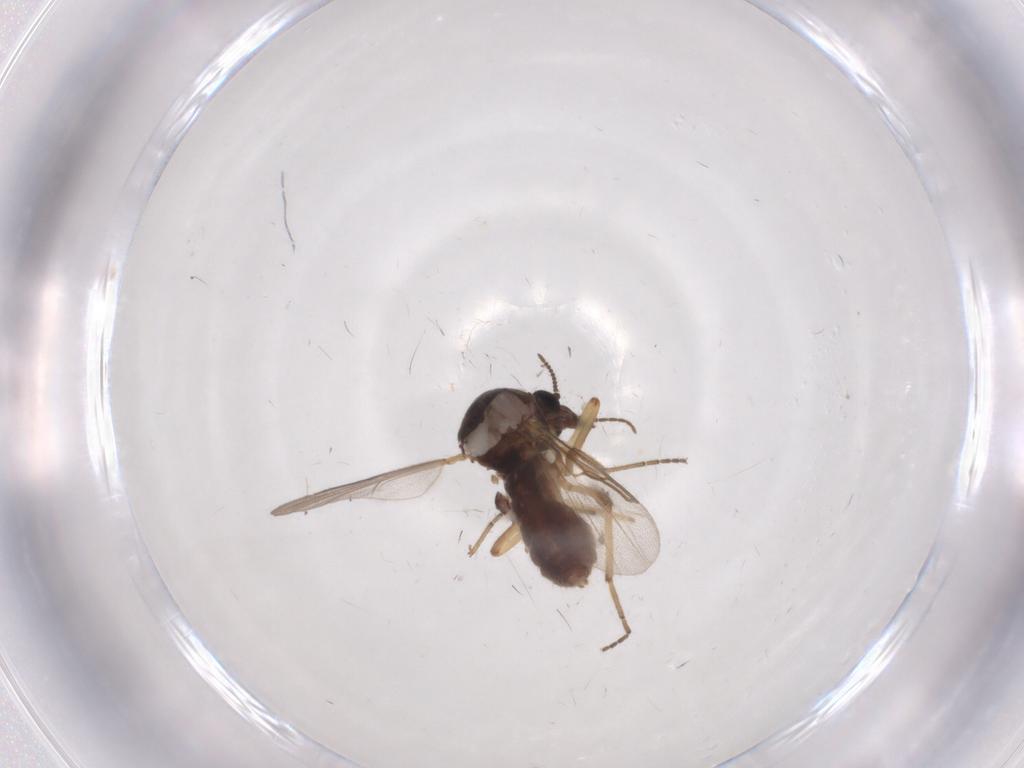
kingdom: Animalia
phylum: Arthropoda
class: Insecta
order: Diptera
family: Ceratopogonidae
